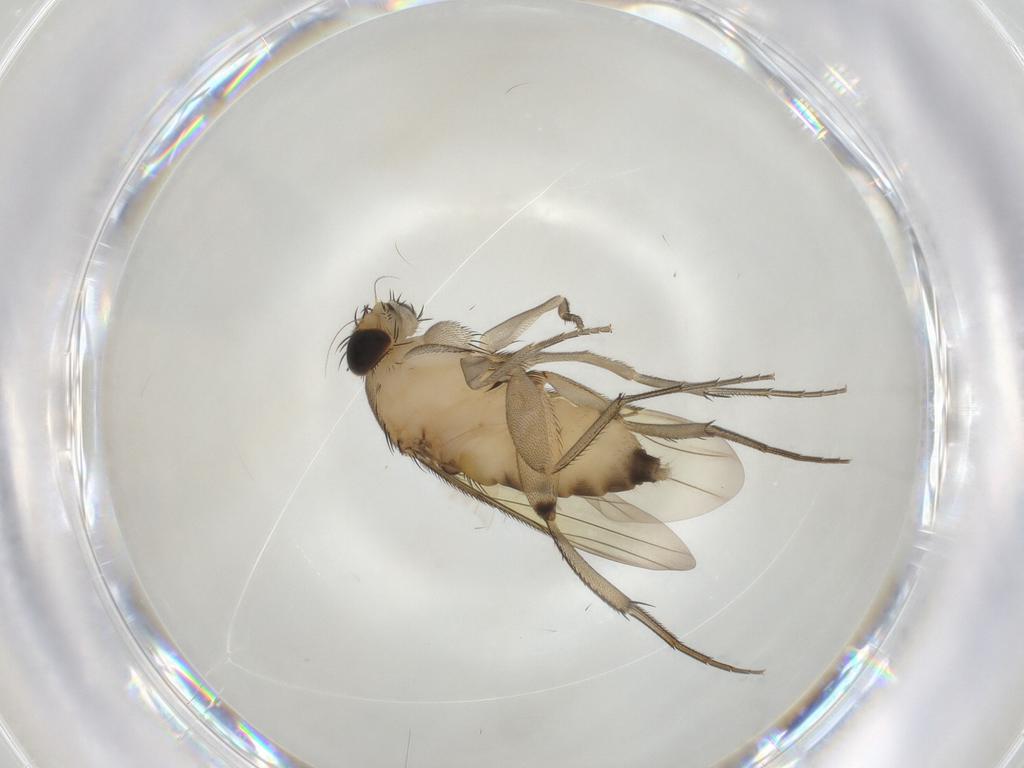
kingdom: Animalia
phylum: Arthropoda
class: Insecta
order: Diptera
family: Phoridae
